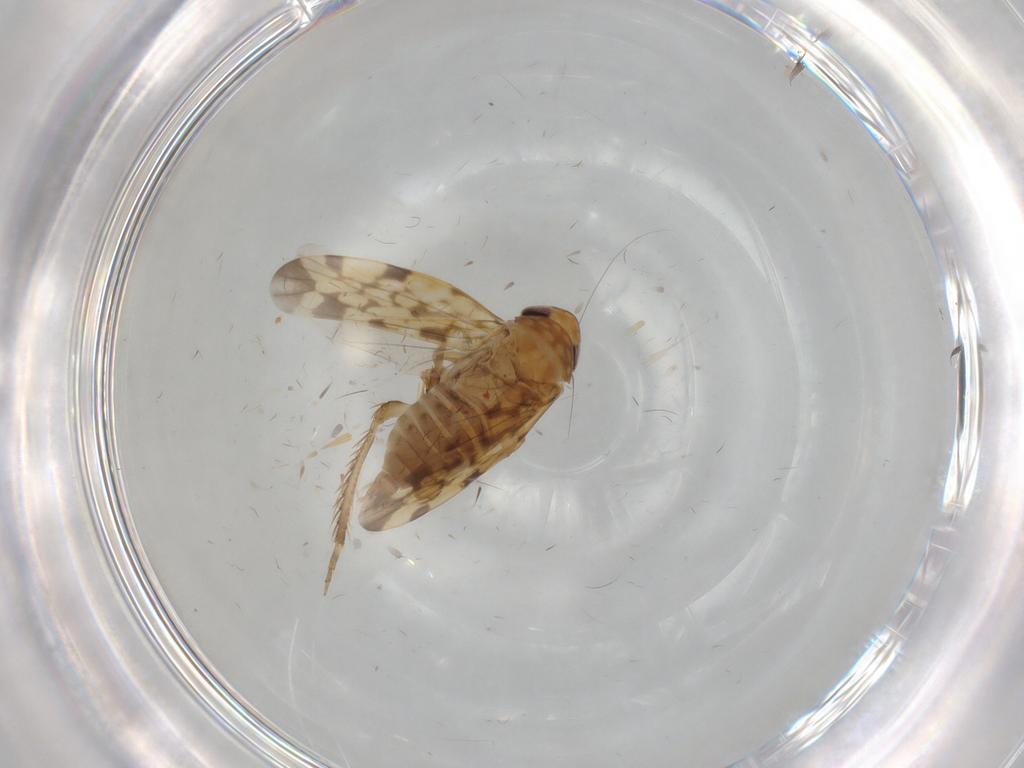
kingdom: Animalia
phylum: Arthropoda
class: Insecta
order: Hemiptera
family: Cicadellidae
